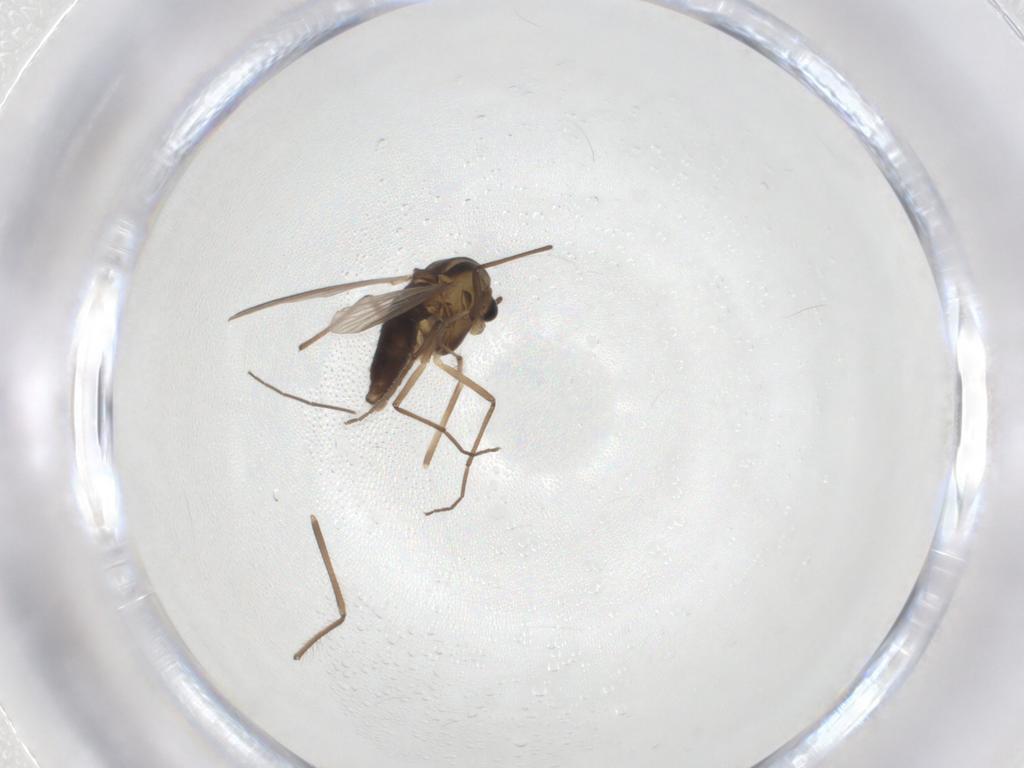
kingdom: Animalia
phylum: Arthropoda
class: Insecta
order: Diptera
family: Chironomidae
